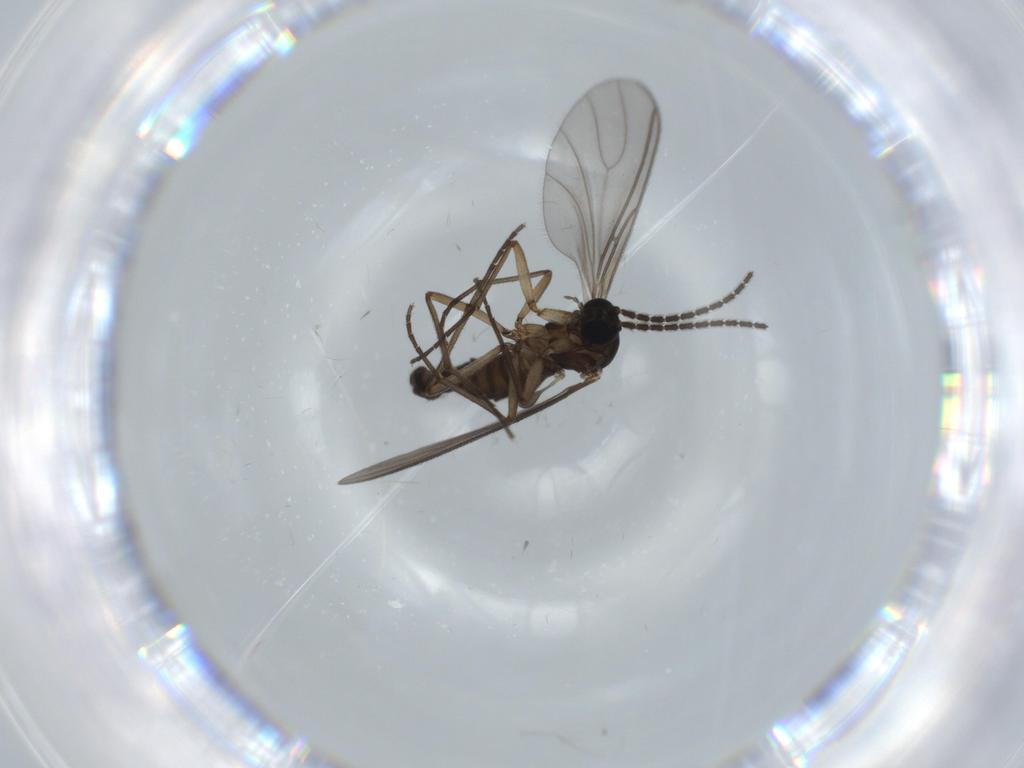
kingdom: Animalia
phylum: Arthropoda
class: Insecta
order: Diptera
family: Sciaridae
